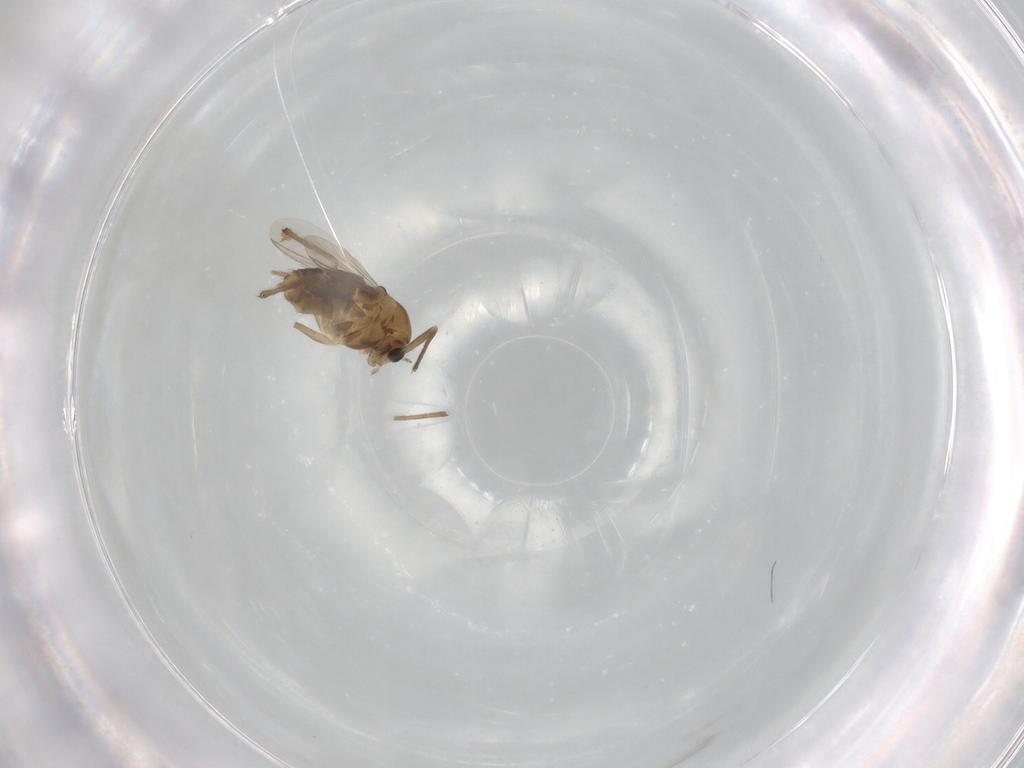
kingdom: Animalia
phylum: Arthropoda
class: Insecta
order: Diptera
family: Chironomidae
